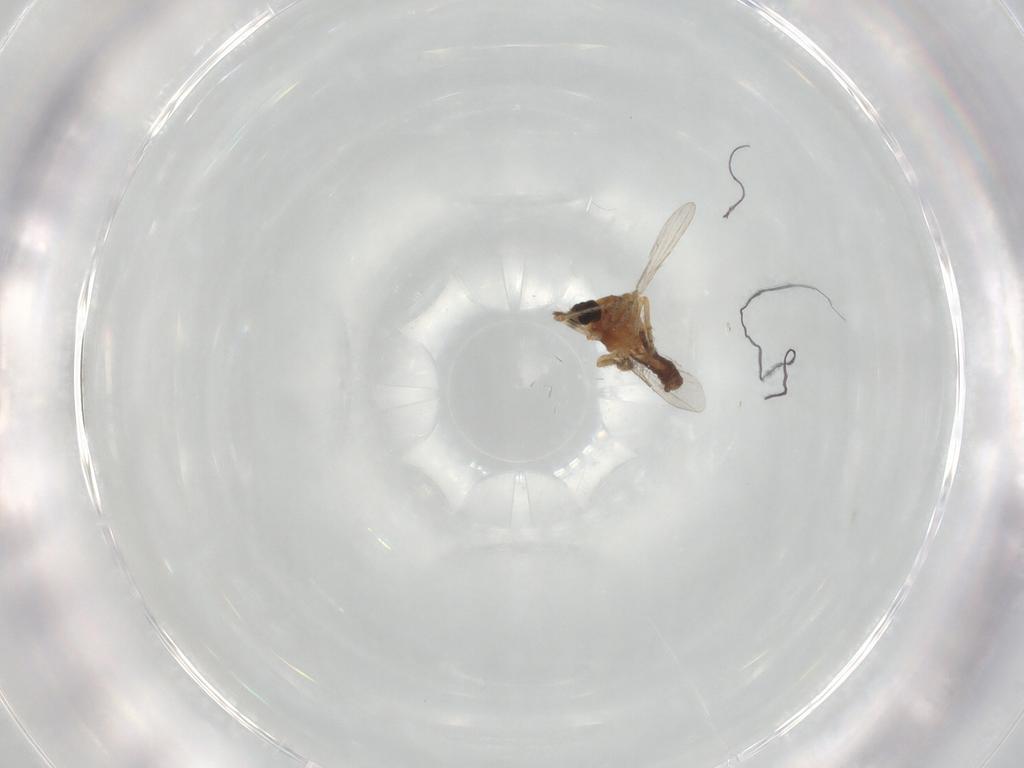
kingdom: Animalia
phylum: Arthropoda
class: Insecta
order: Diptera
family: Ceratopogonidae
